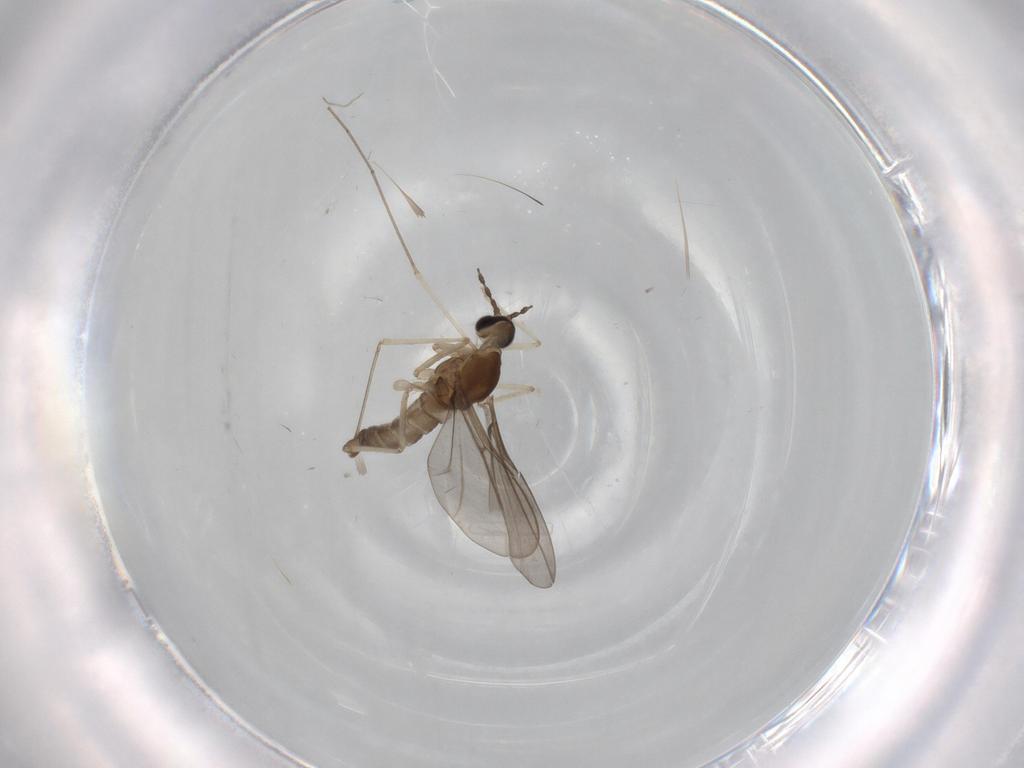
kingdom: Animalia
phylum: Arthropoda
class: Insecta
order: Diptera
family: Cecidomyiidae
